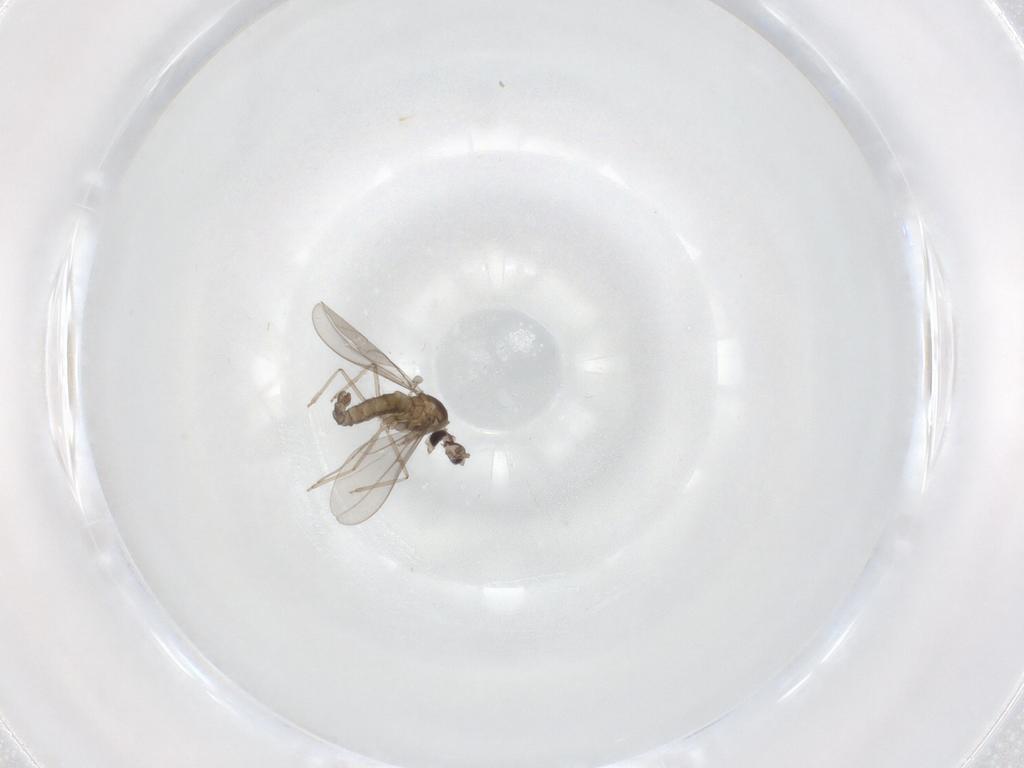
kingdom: Animalia
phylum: Arthropoda
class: Insecta
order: Diptera
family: Cecidomyiidae
